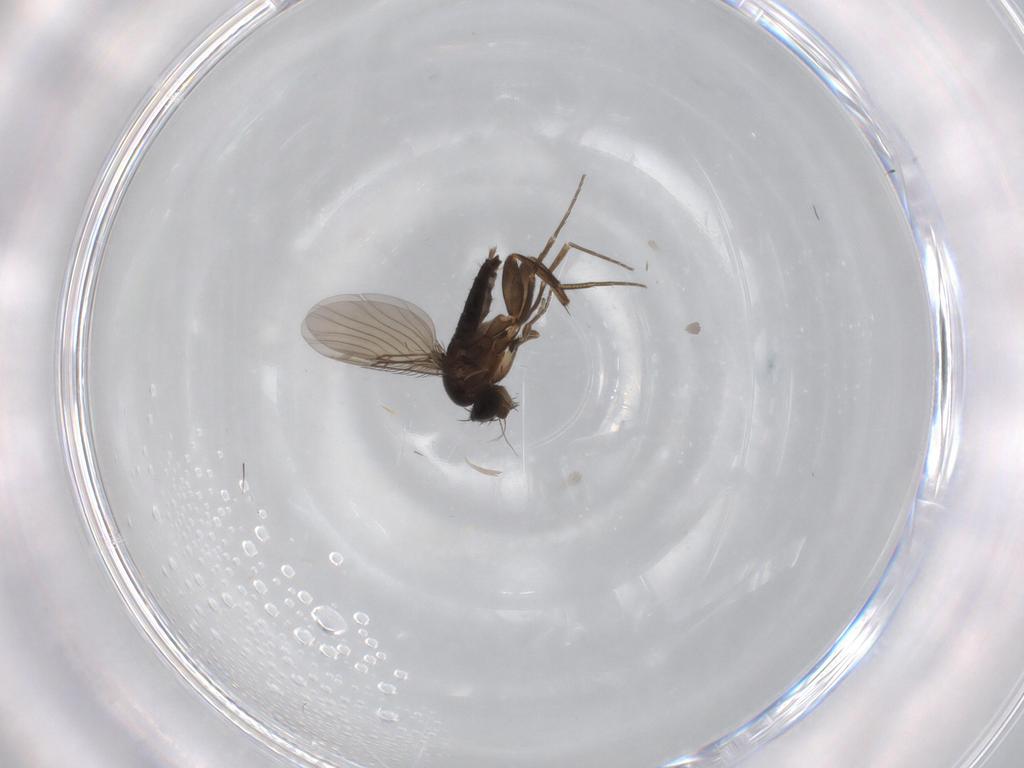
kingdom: Animalia
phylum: Arthropoda
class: Insecta
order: Diptera
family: Phoridae
